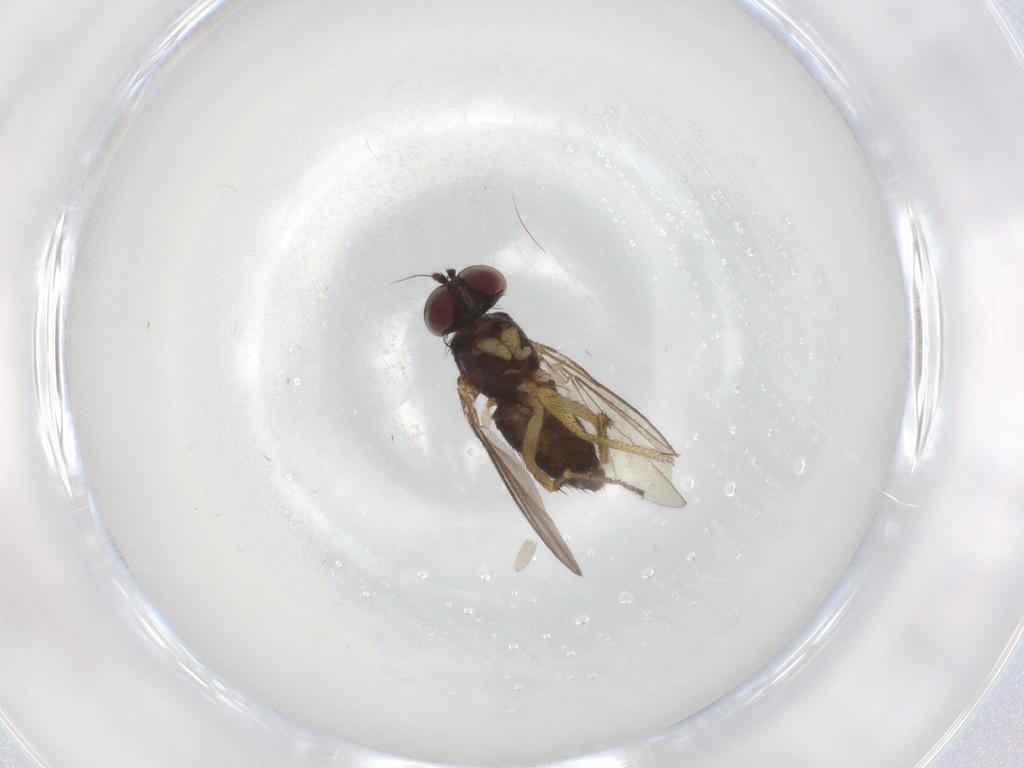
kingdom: Animalia
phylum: Arthropoda
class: Insecta
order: Diptera
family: Dolichopodidae
